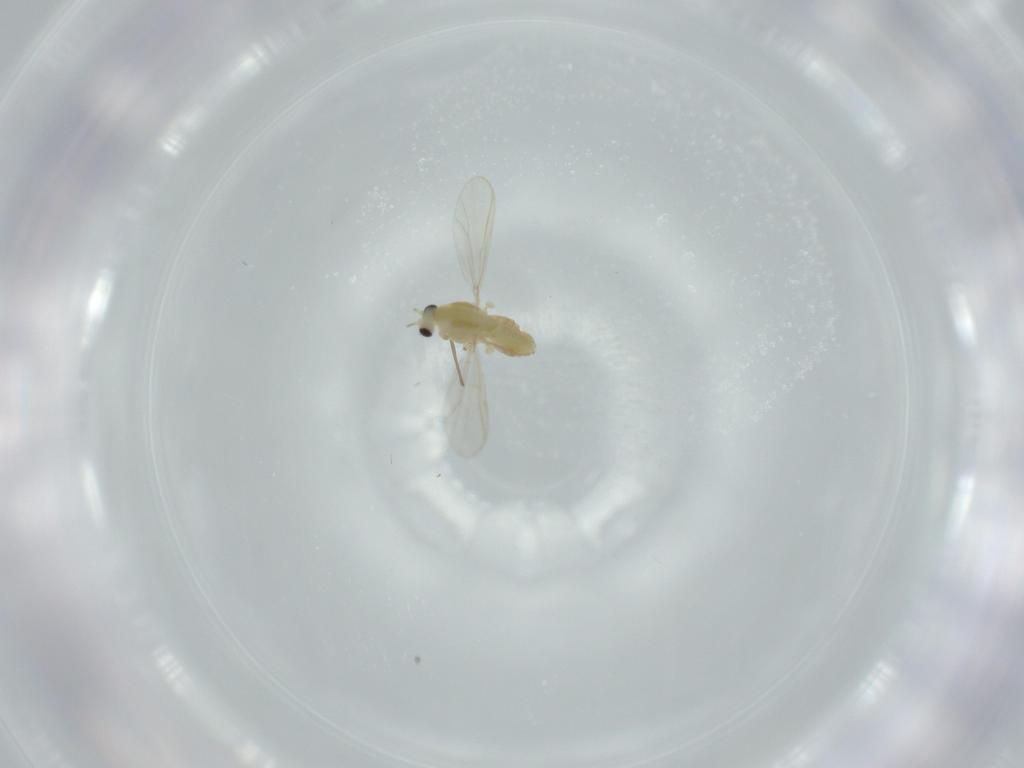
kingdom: Animalia
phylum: Arthropoda
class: Insecta
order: Diptera
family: Chironomidae
